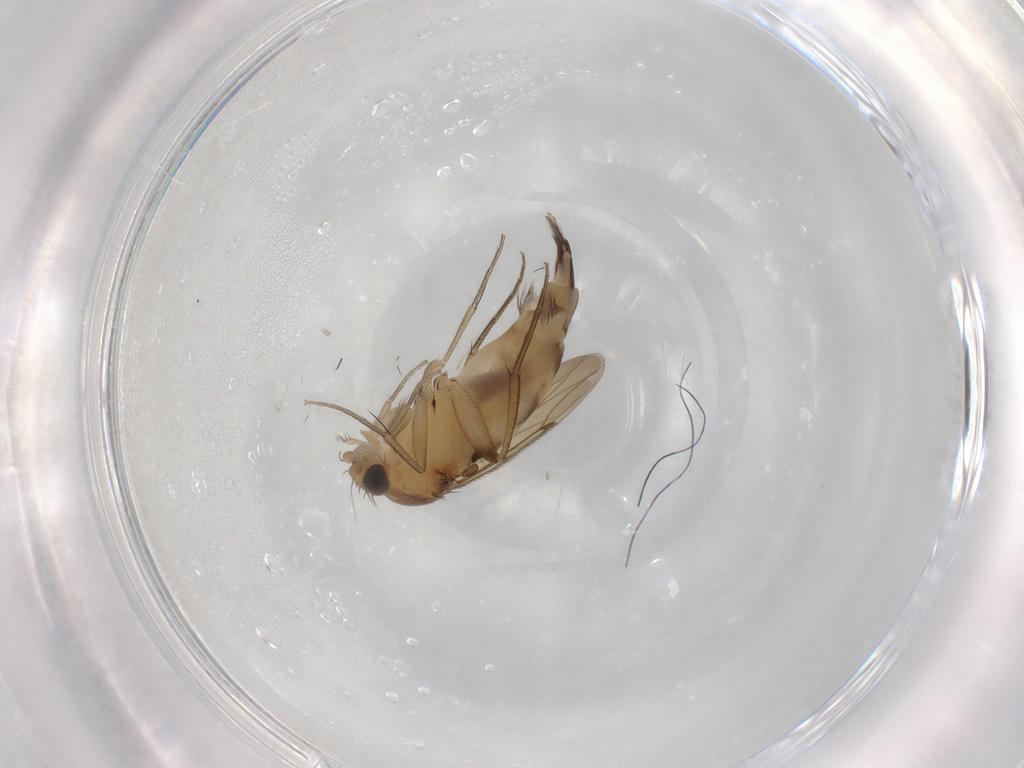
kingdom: Animalia
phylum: Arthropoda
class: Insecta
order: Diptera
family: Phoridae
